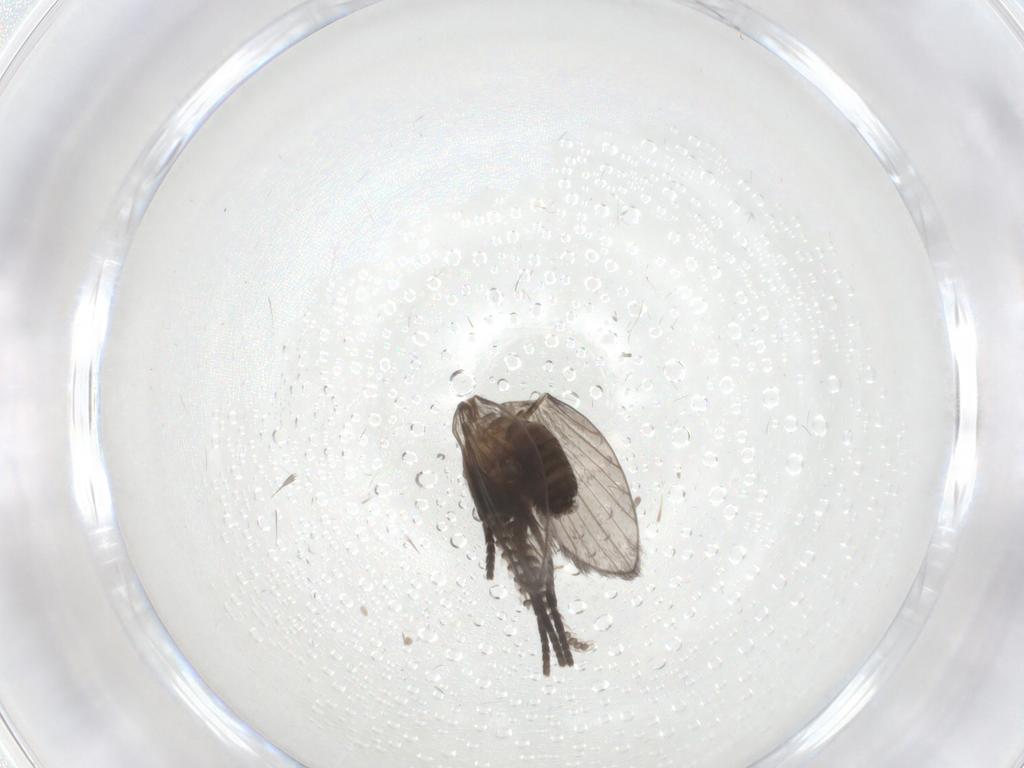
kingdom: Animalia
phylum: Arthropoda
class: Insecta
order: Diptera
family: Psychodidae
